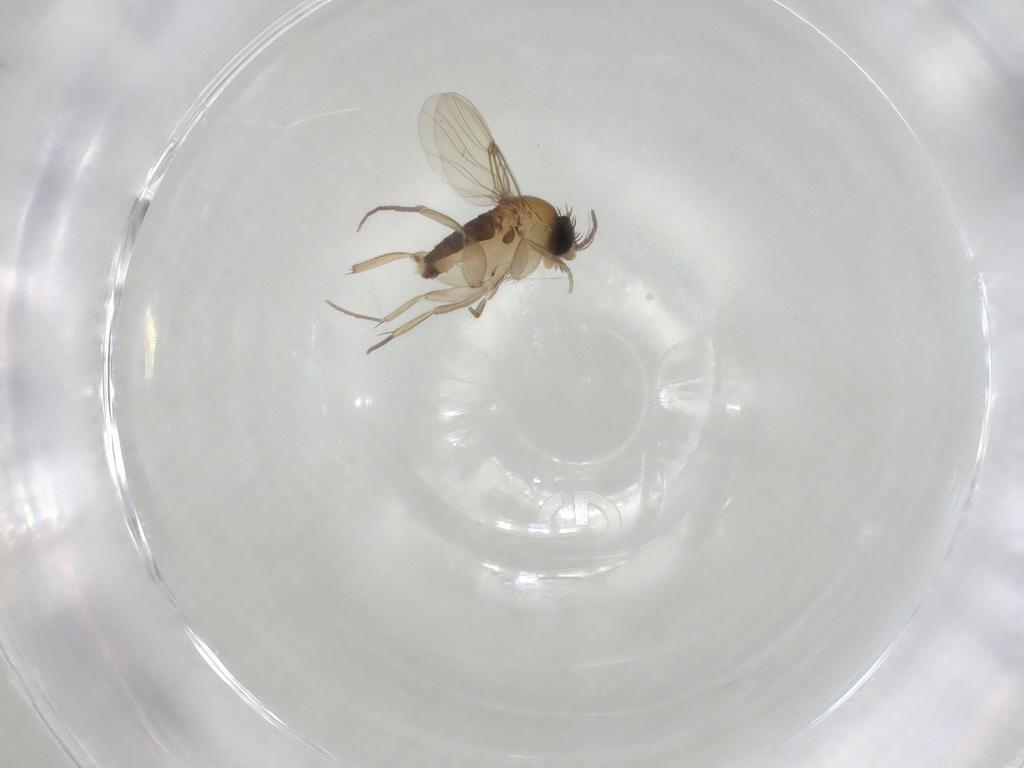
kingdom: Animalia
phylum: Arthropoda
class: Insecta
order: Diptera
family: Phoridae
